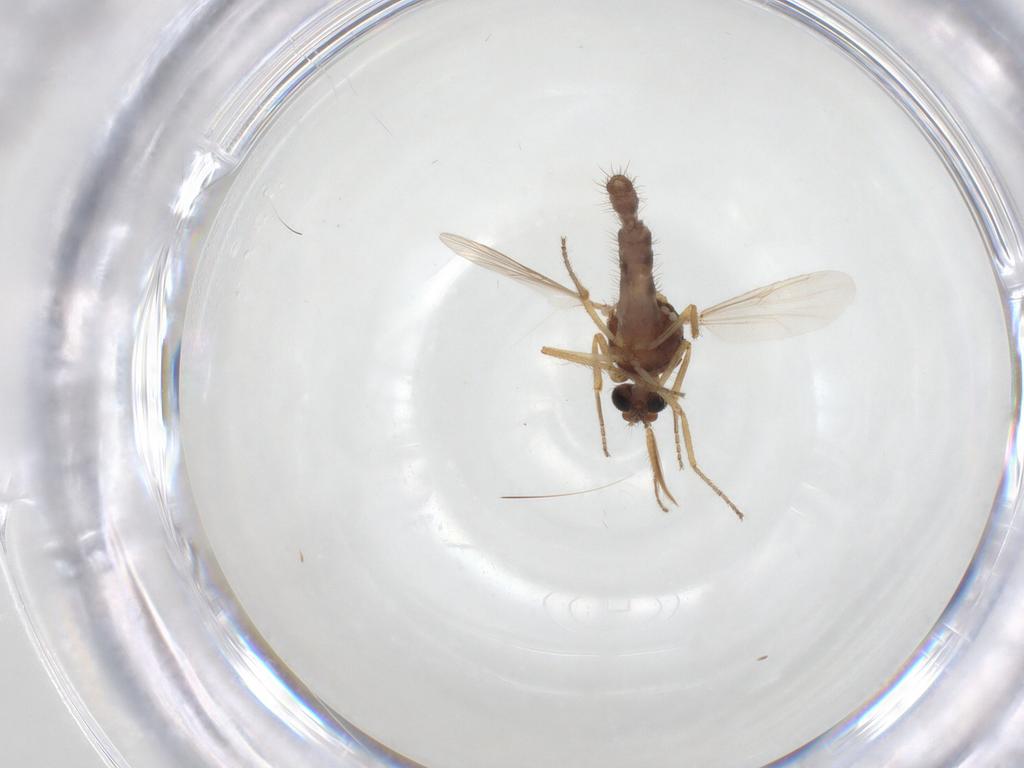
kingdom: Animalia
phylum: Arthropoda
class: Insecta
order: Diptera
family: Ceratopogonidae
